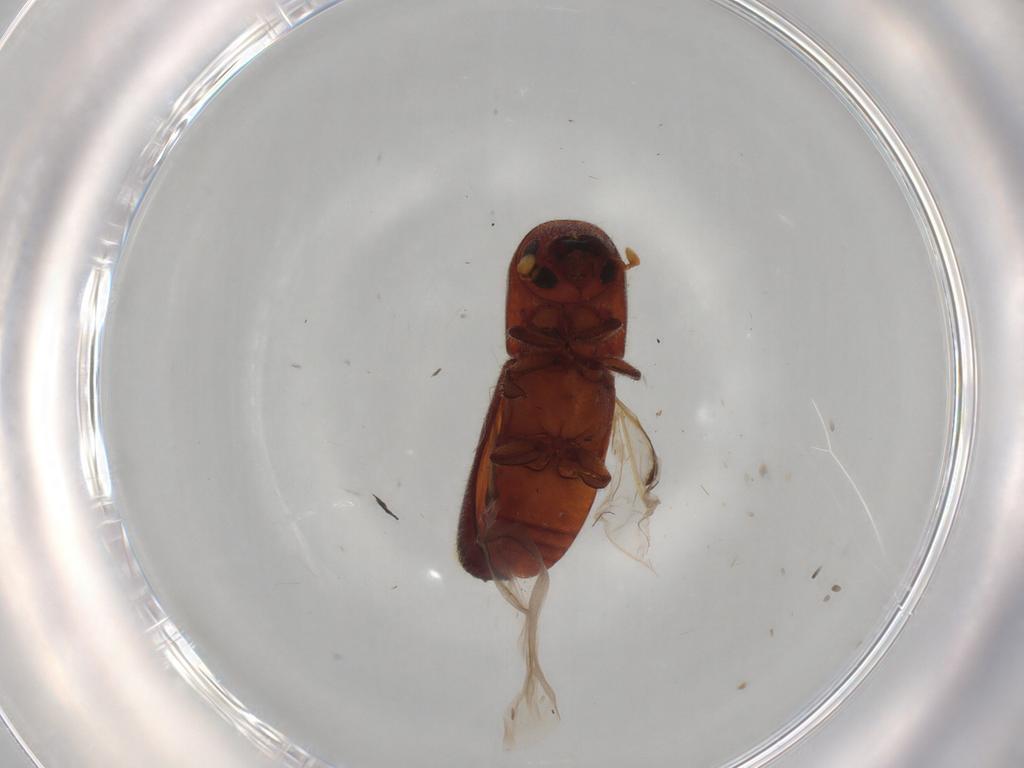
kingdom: Animalia
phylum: Arthropoda
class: Insecta
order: Coleoptera
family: Curculionidae
